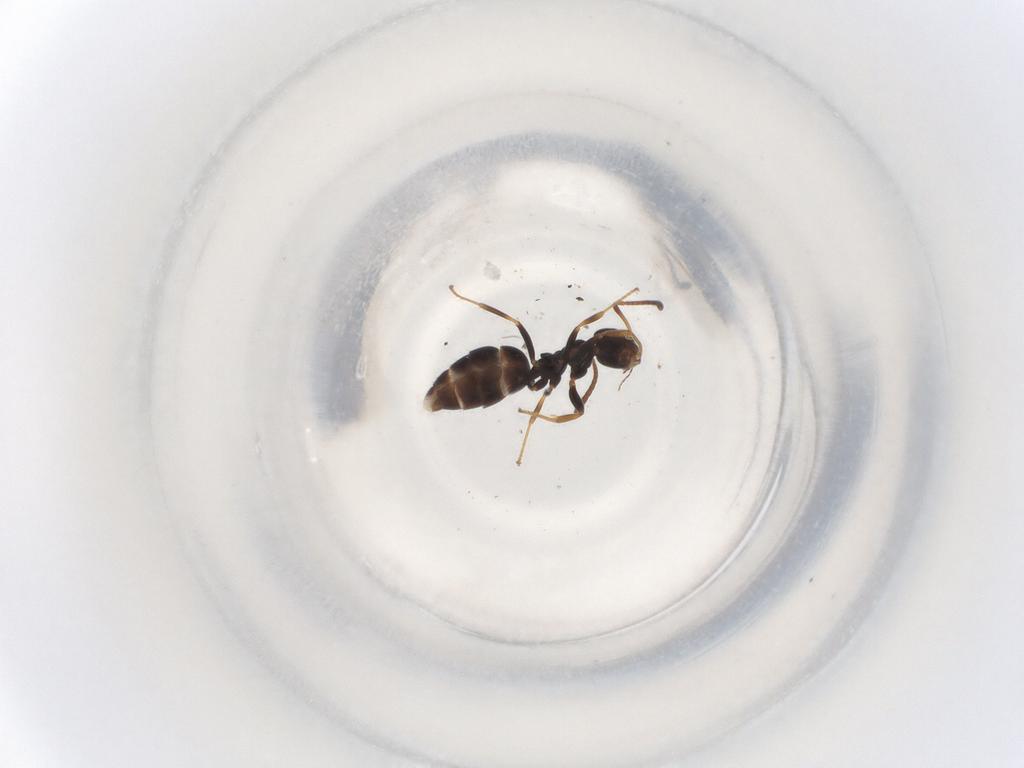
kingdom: Animalia
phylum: Arthropoda
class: Insecta
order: Hymenoptera
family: Formicidae
